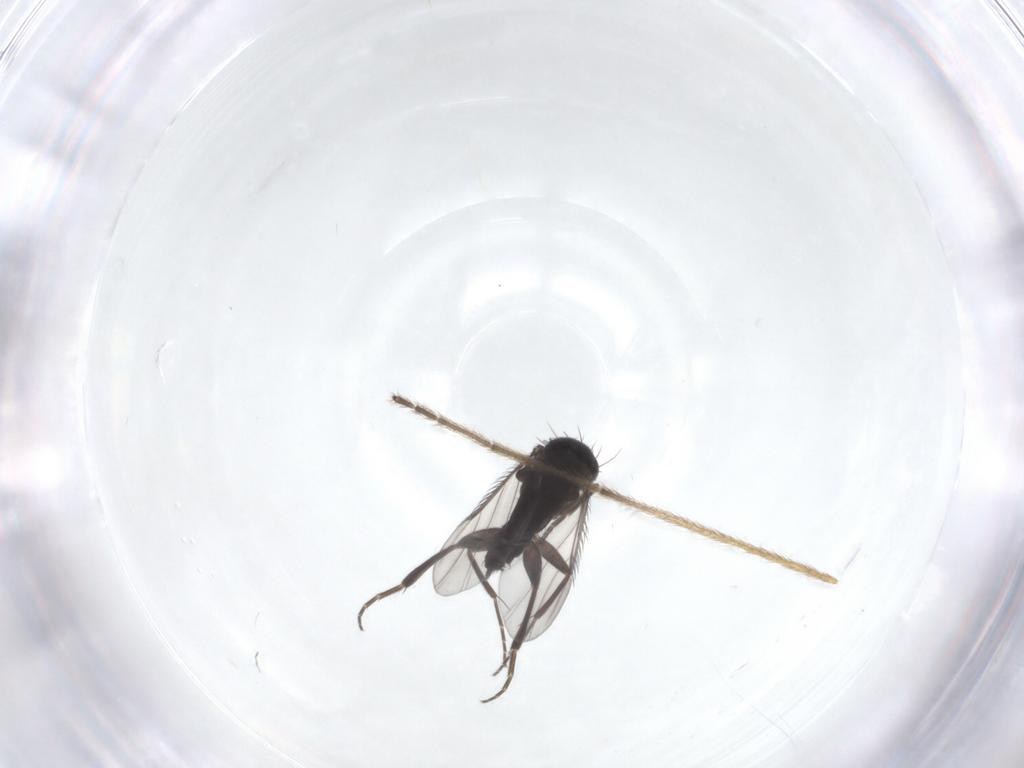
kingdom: Animalia
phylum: Arthropoda
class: Insecta
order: Diptera
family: Phoridae
